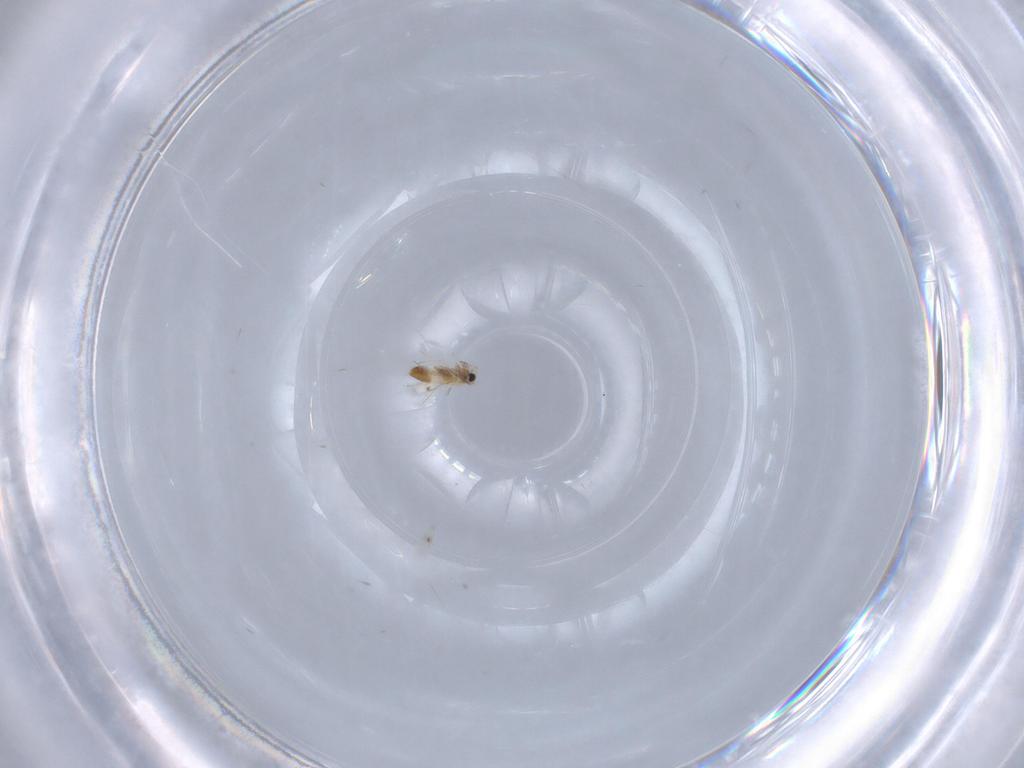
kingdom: Animalia
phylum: Arthropoda
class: Insecta
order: Hymenoptera
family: Trichogrammatidae
